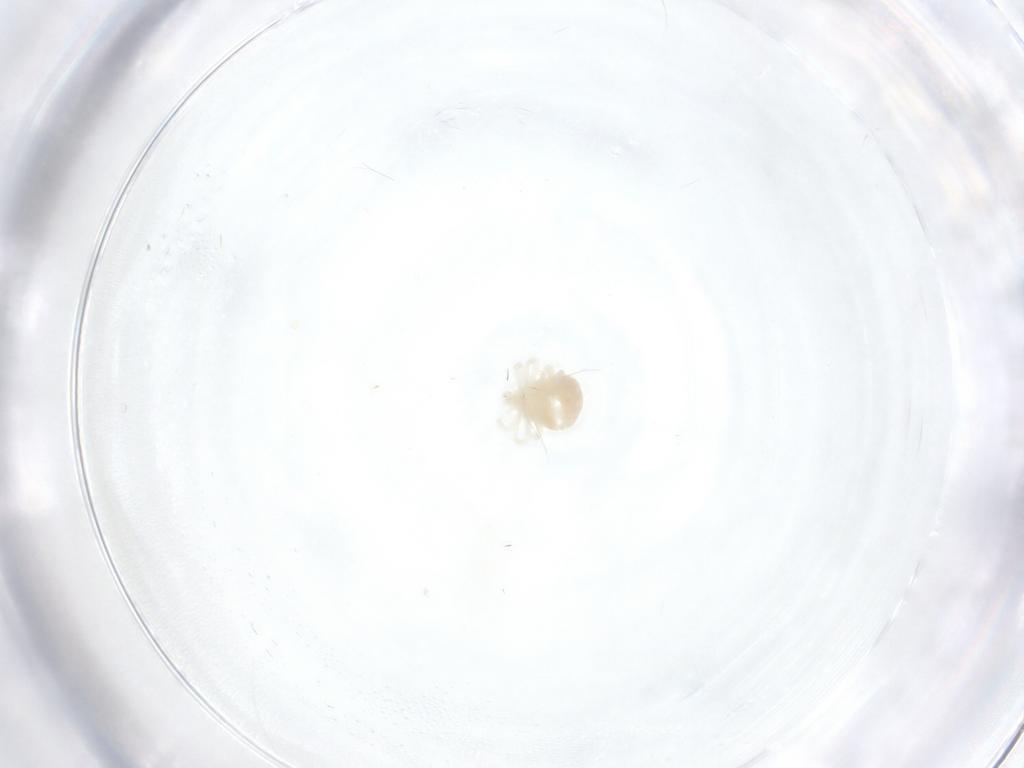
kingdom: Animalia
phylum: Arthropoda
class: Arachnida
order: Trombidiformes
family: Anystidae
